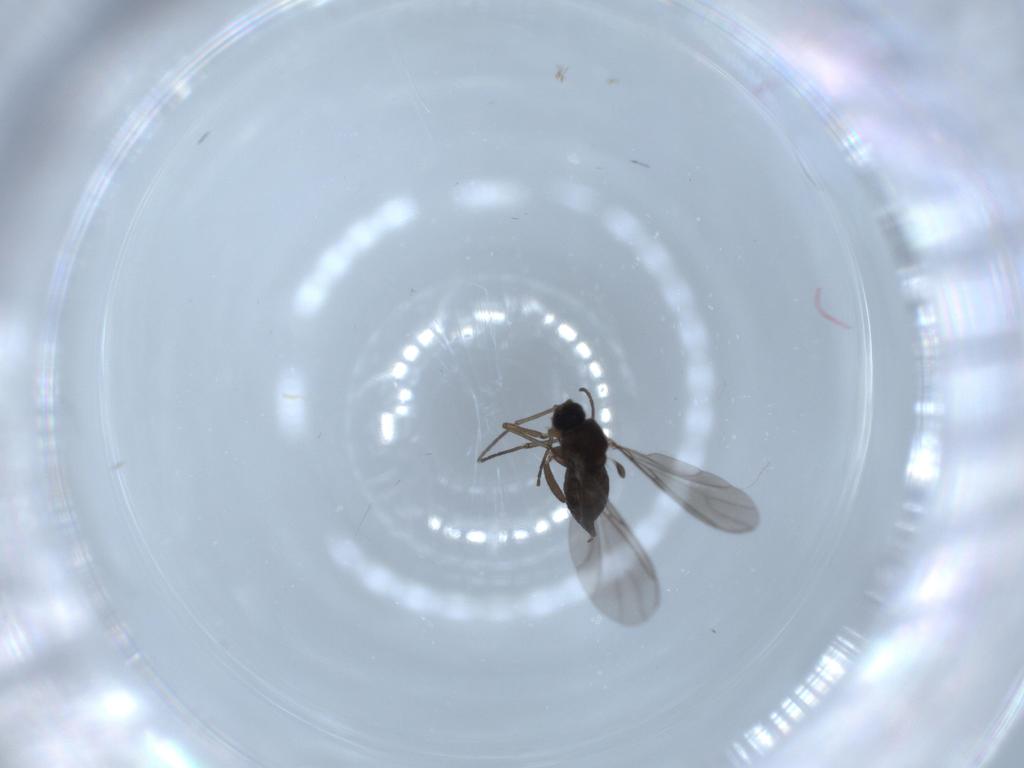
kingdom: Animalia
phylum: Arthropoda
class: Insecta
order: Diptera
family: Sciaridae
